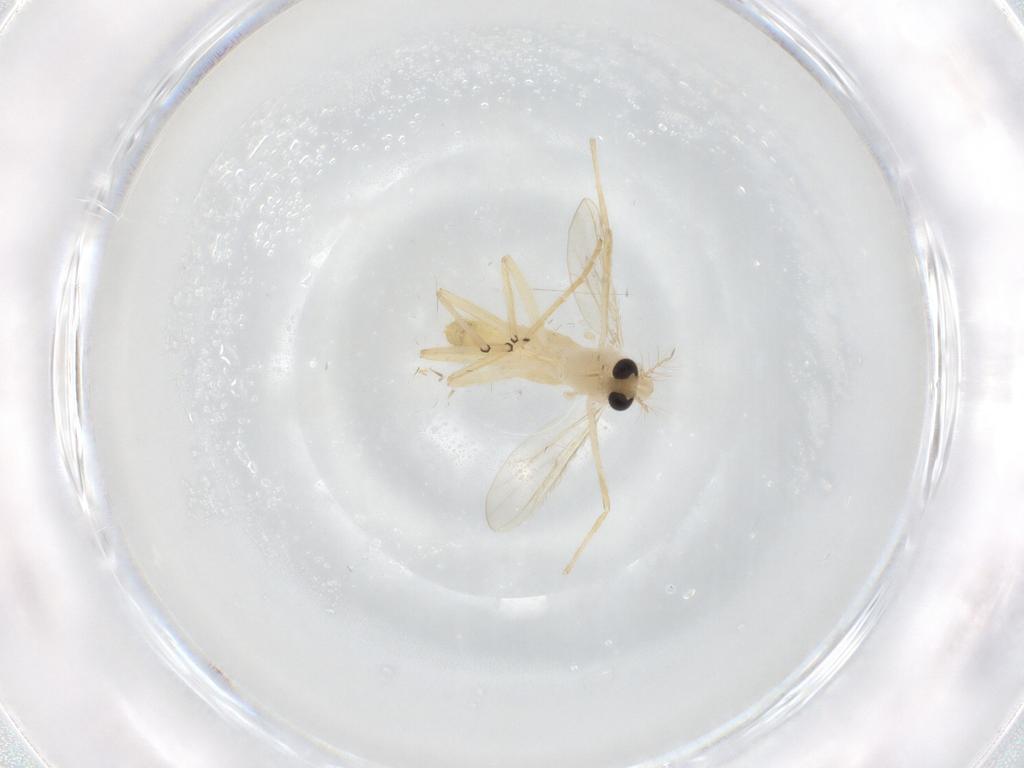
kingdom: Animalia
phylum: Arthropoda
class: Insecta
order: Diptera
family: Chironomidae
